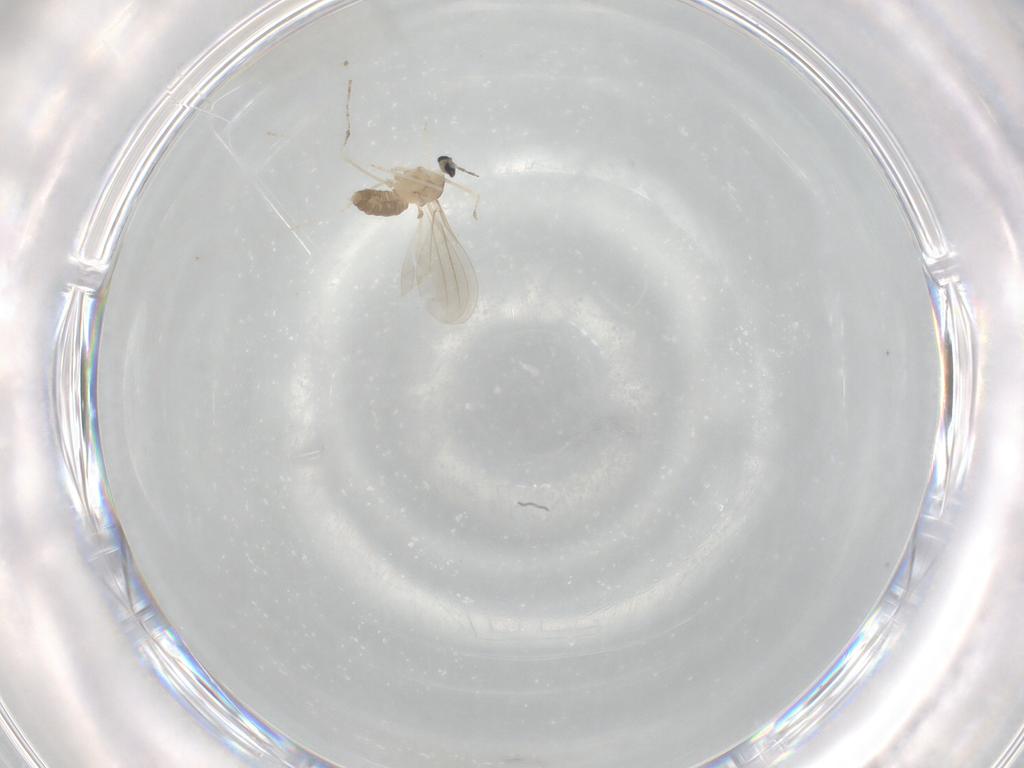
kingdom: Animalia
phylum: Arthropoda
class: Insecta
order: Diptera
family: Cecidomyiidae
